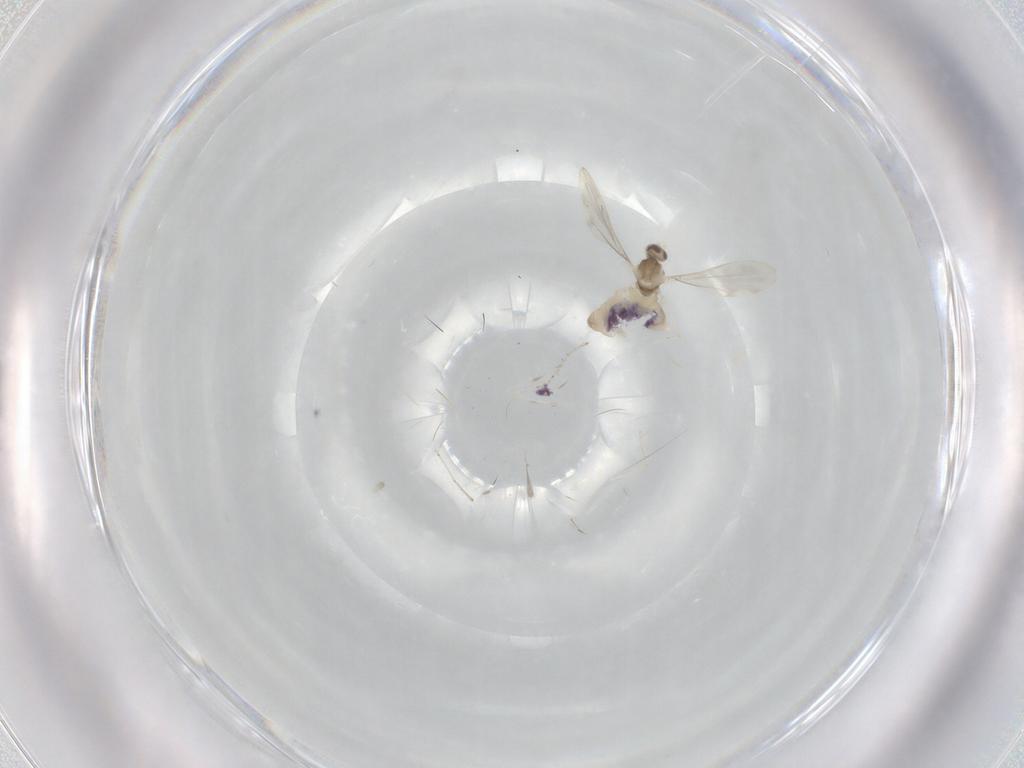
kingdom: Animalia
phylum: Arthropoda
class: Insecta
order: Diptera
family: Cecidomyiidae
